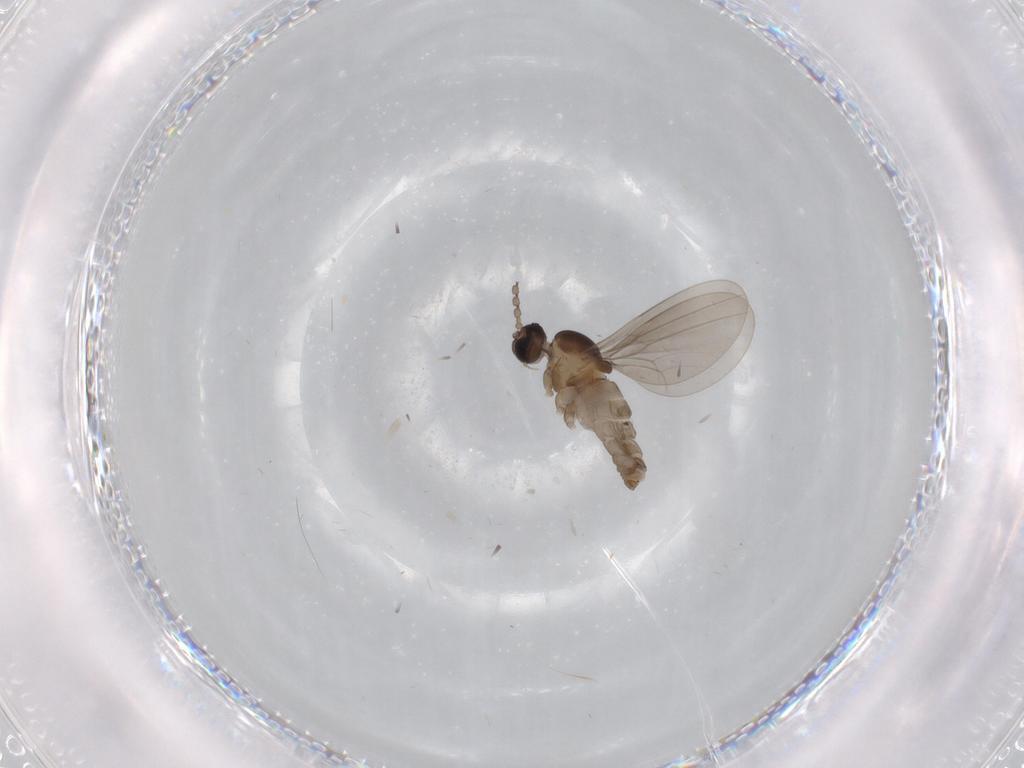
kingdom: Animalia
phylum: Arthropoda
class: Insecta
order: Diptera
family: Cecidomyiidae
